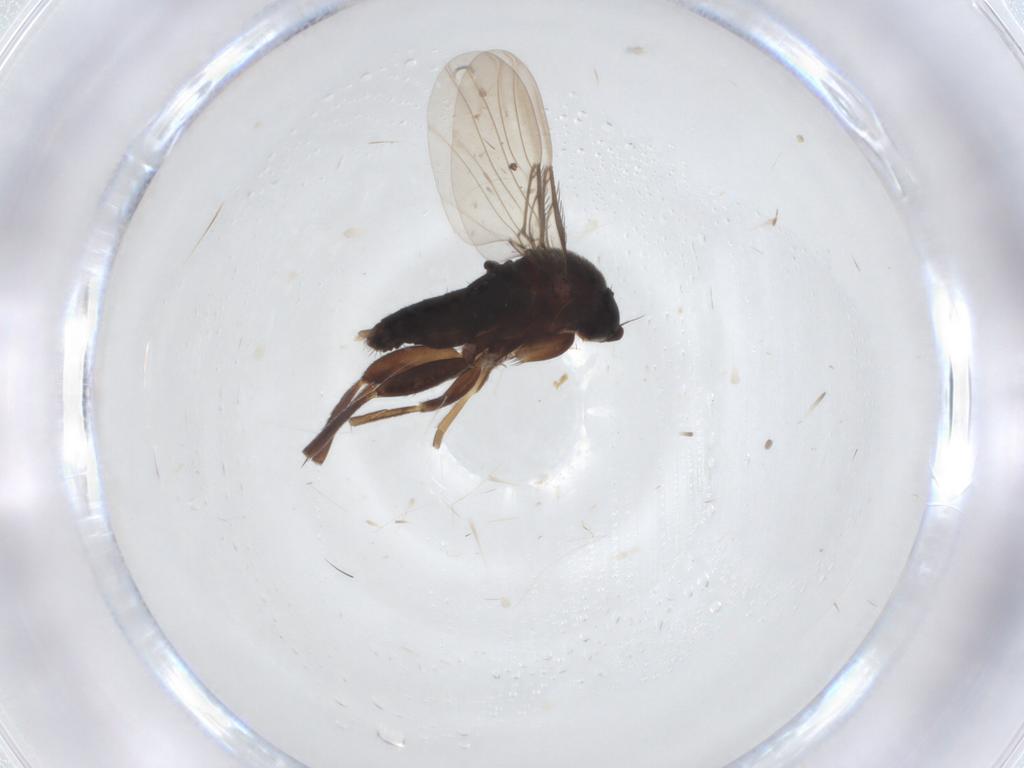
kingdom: Animalia
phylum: Arthropoda
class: Insecta
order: Diptera
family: Phoridae
